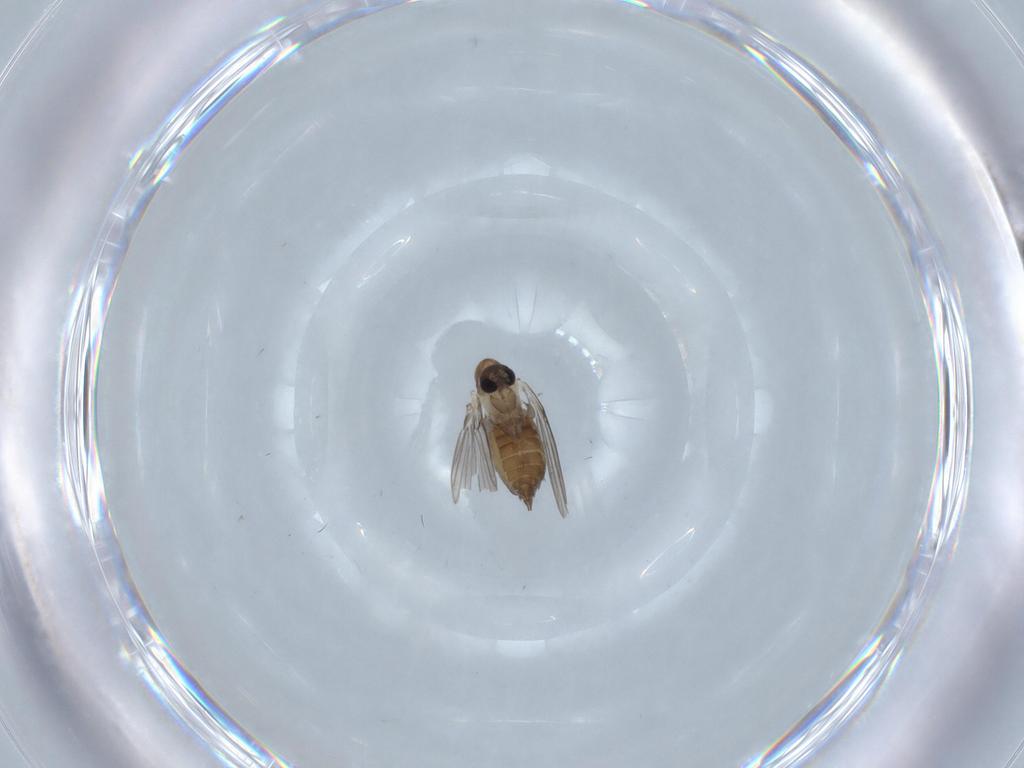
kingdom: Animalia
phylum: Arthropoda
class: Insecta
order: Diptera
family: Psychodidae
